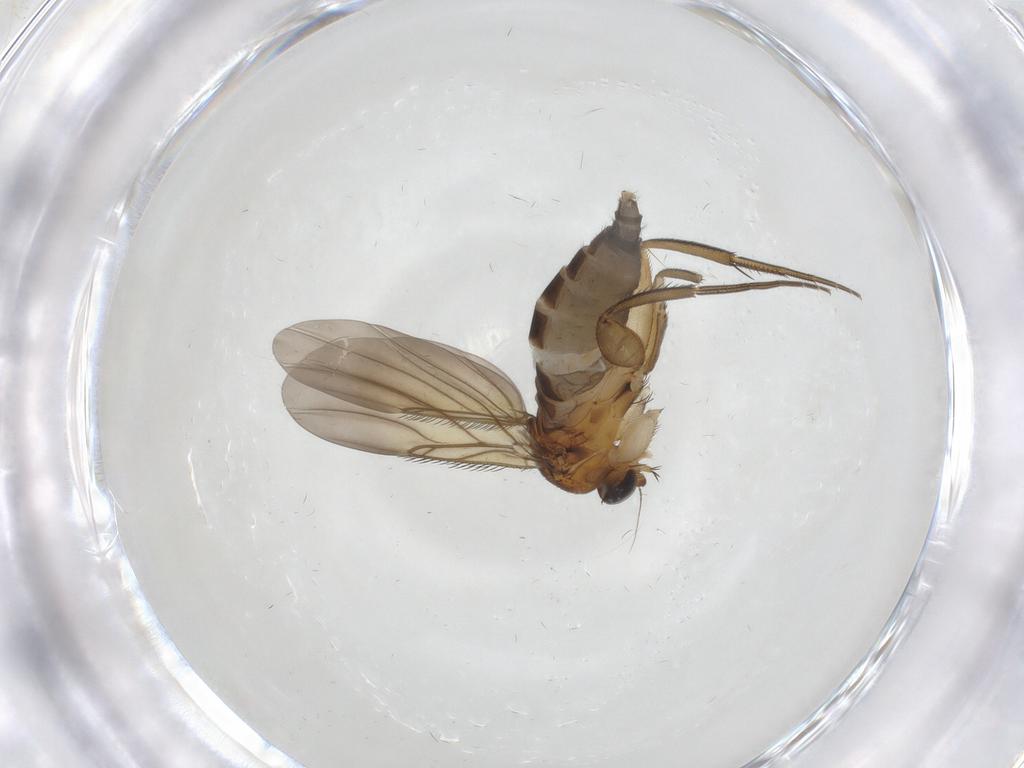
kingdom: Animalia
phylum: Arthropoda
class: Insecta
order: Diptera
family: Phoridae
